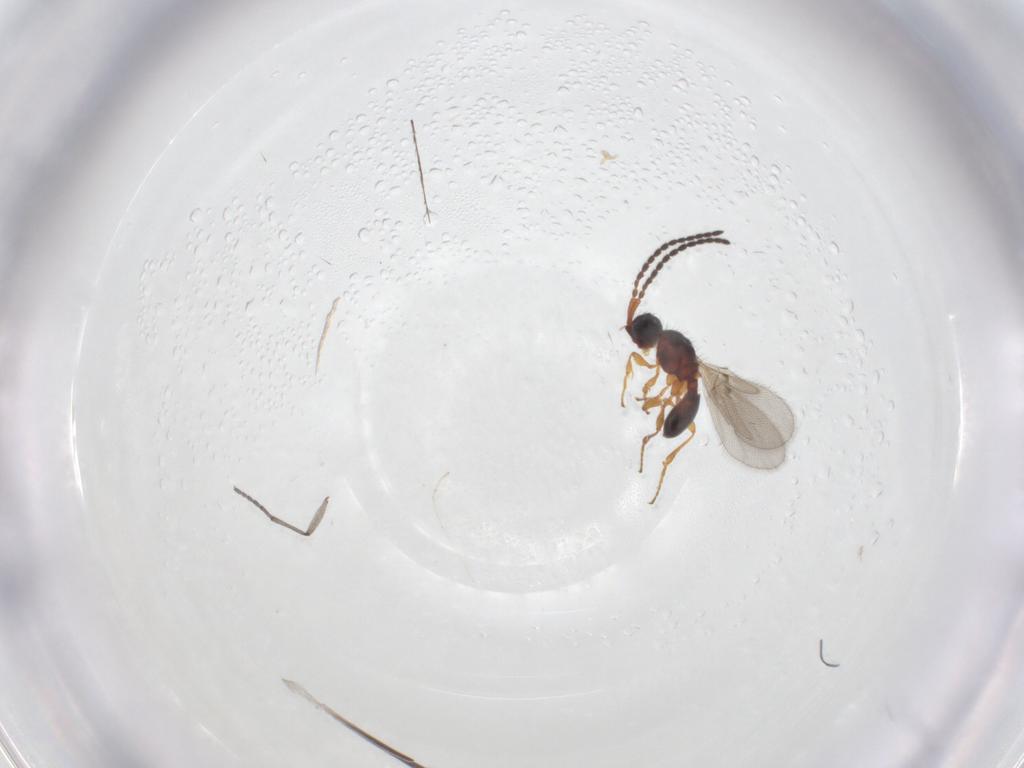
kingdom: Animalia
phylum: Arthropoda
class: Insecta
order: Hymenoptera
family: Diapriidae
